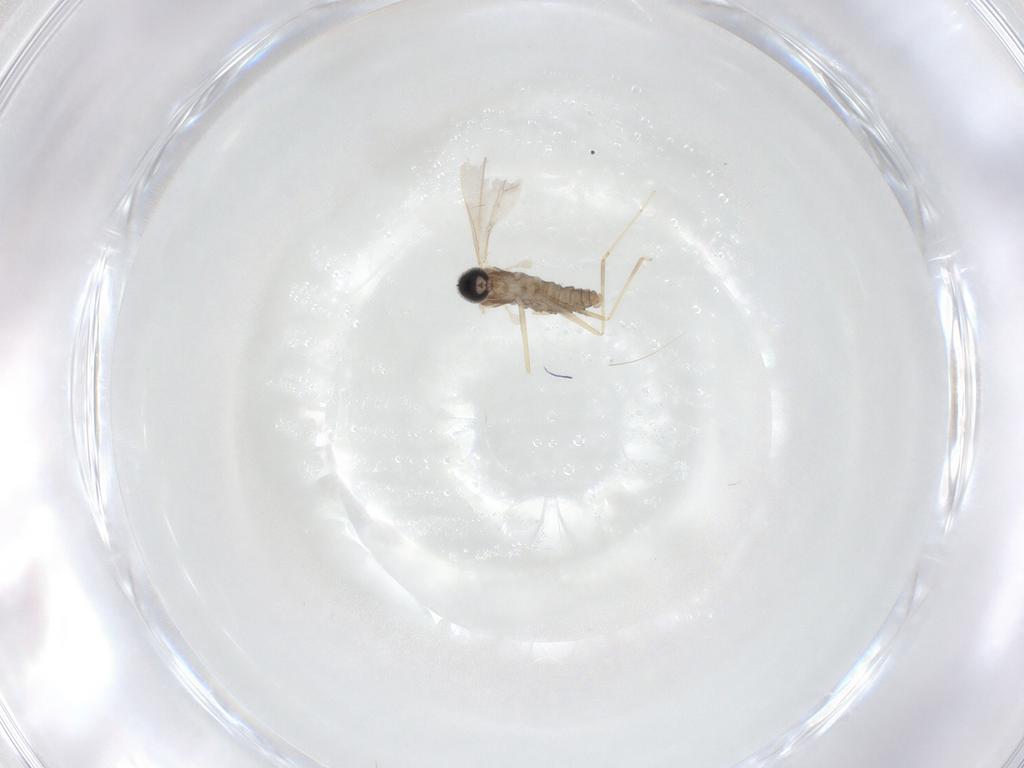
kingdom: Animalia
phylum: Arthropoda
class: Insecta
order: Diptera
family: Cecidomyiidae
